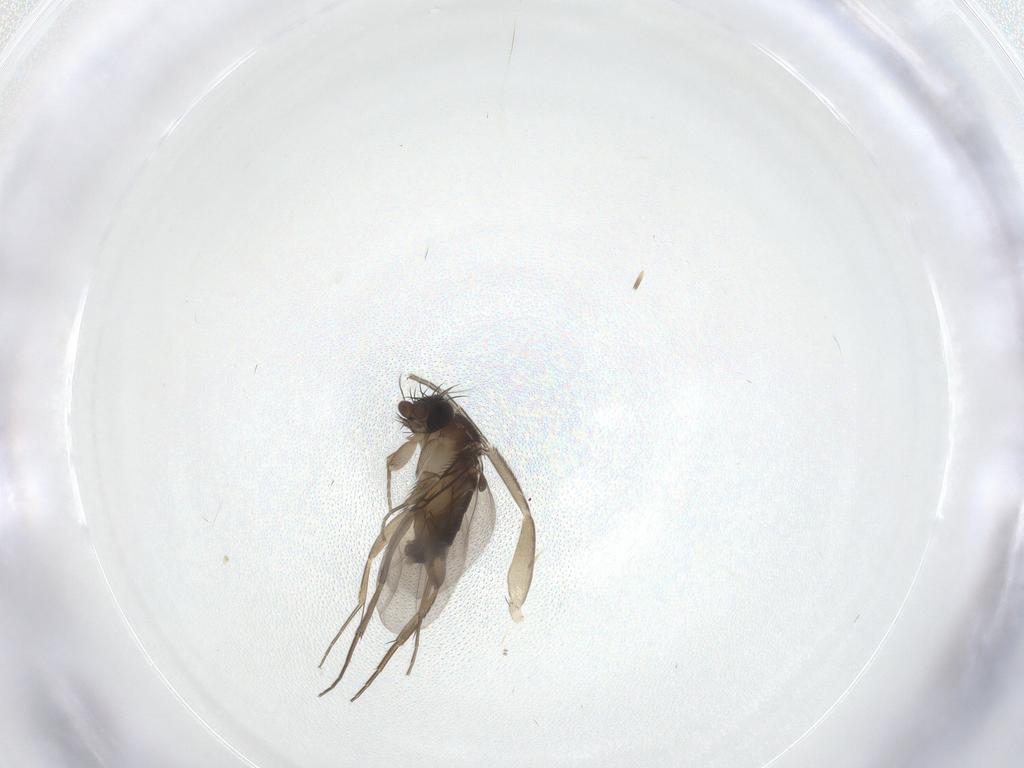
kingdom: Animalia
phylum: Arthropoda
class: Insecta
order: Diptera
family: Phoridae
